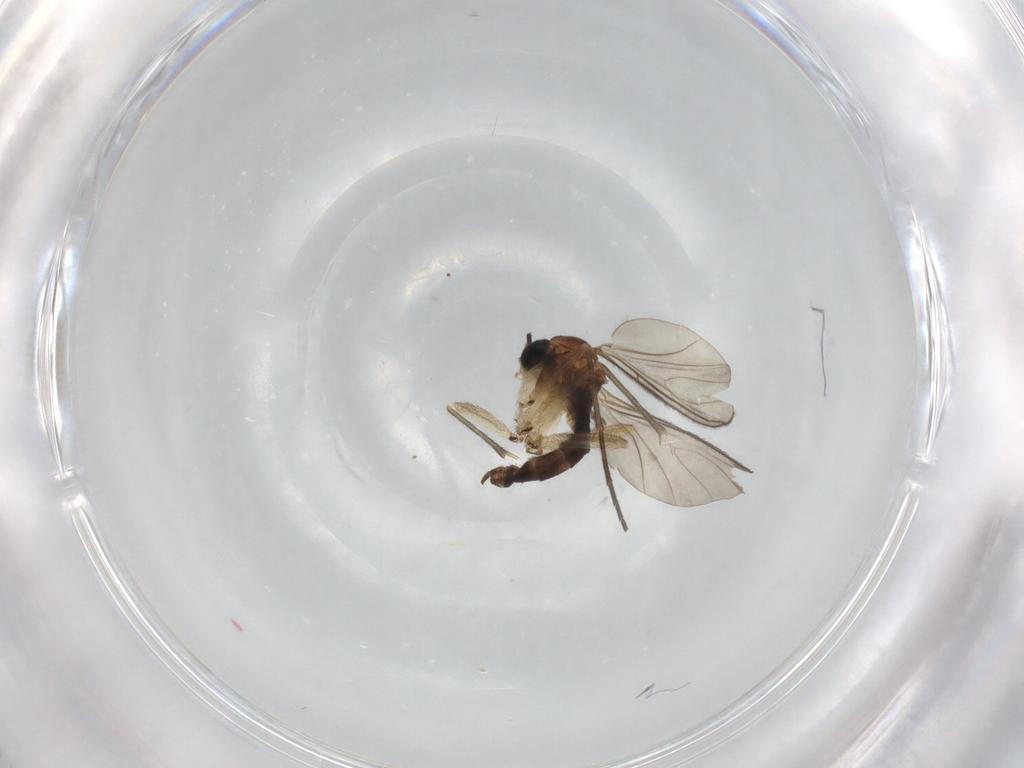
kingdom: Animalia
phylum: Arthropoda
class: Insecta
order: Diptera
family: Sciaridae
